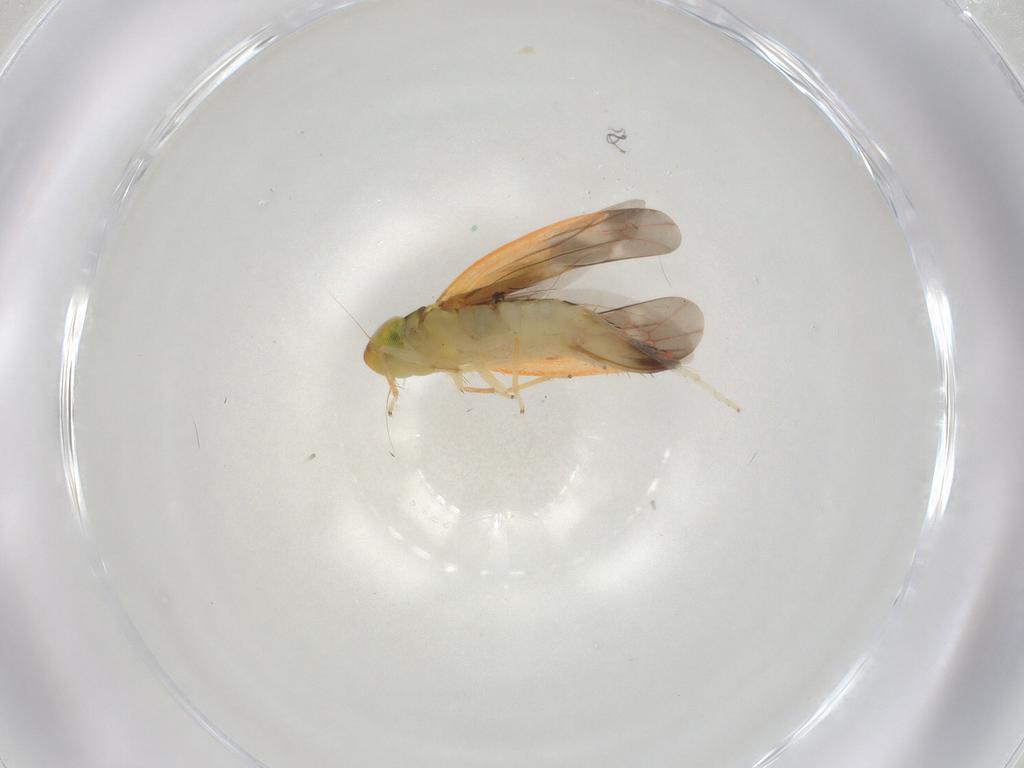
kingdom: Animalia
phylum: Arthropoda
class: Insecta
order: Hemiptera
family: Cicadellidae
